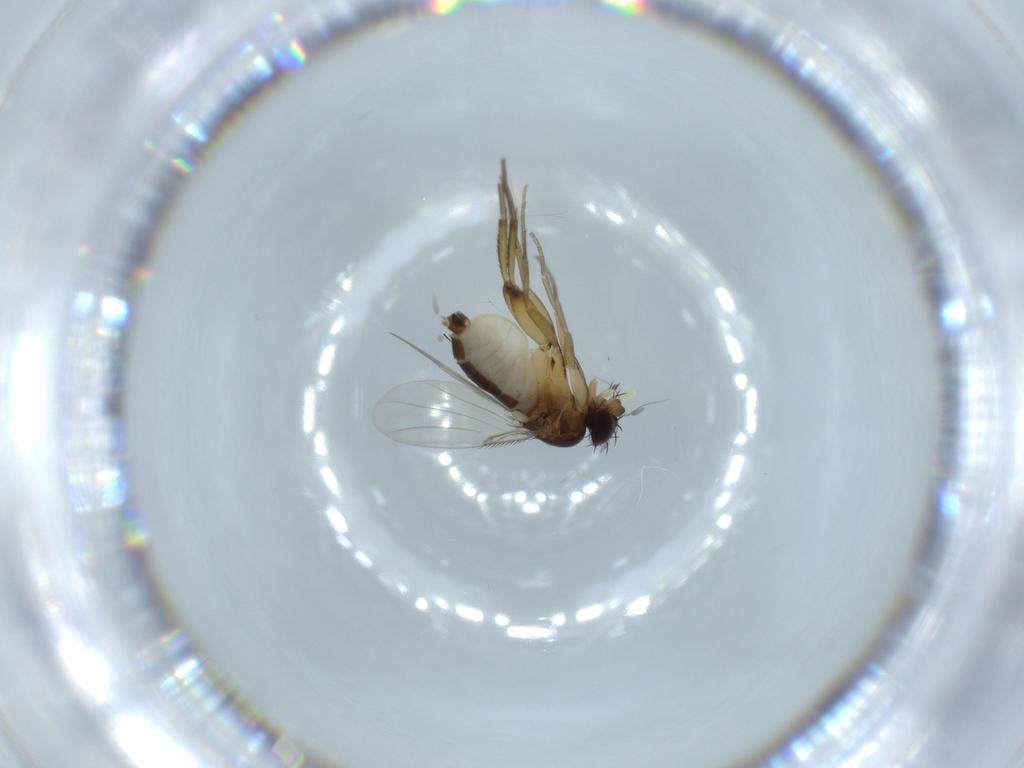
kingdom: Animalia
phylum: Arthropoda
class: Insecta
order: Diptera
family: Phoridae
